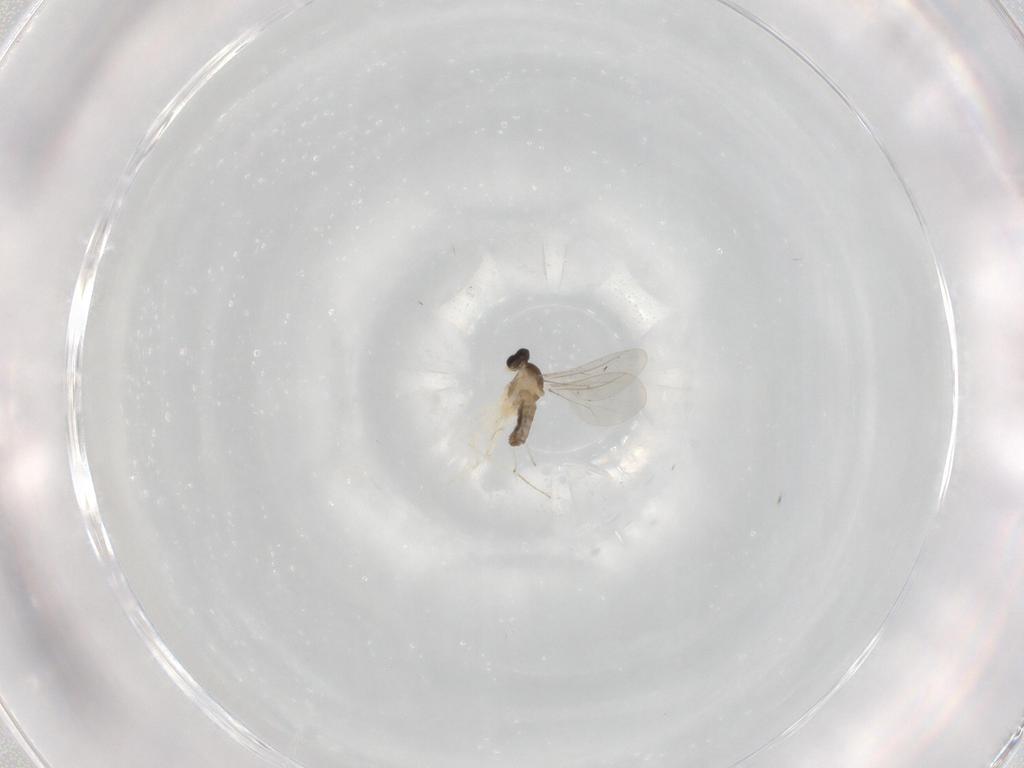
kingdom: Animalia
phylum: Arthropoda
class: Insecta
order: Diptera
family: Cecidomyiidae
